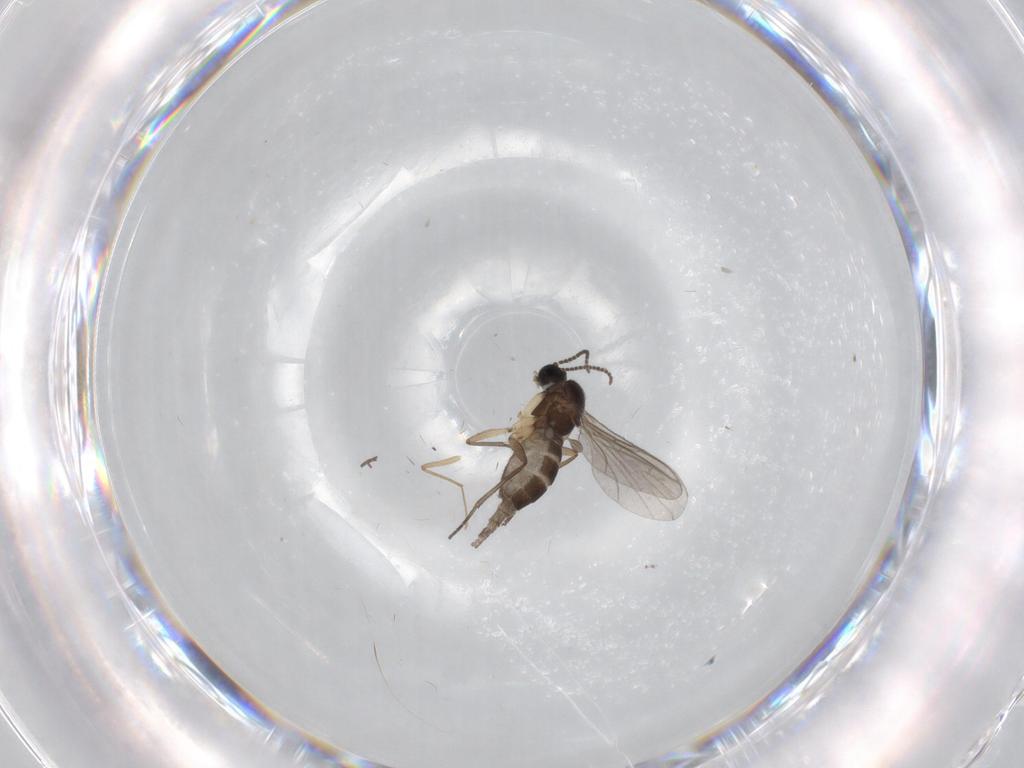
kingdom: Animalia
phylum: Arthropoda
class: Insecta
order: Diptera
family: Sciaridae
